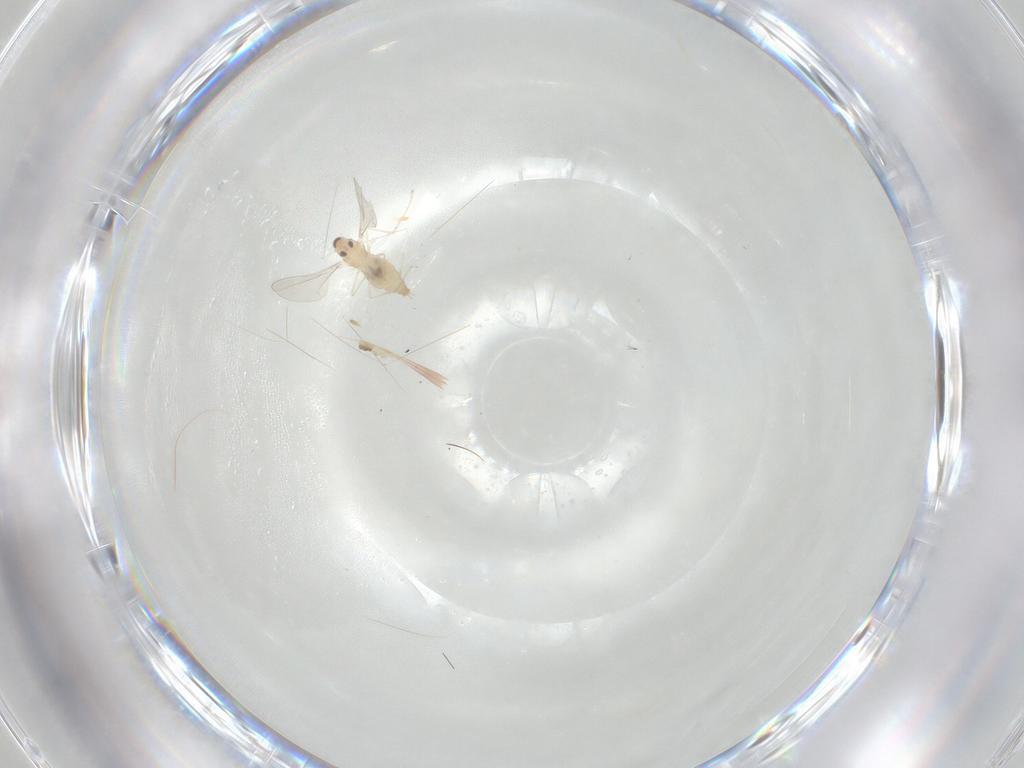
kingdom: Animalia
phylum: Arthropoda
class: Insecta
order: Diptera
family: Cecidomyiidae
